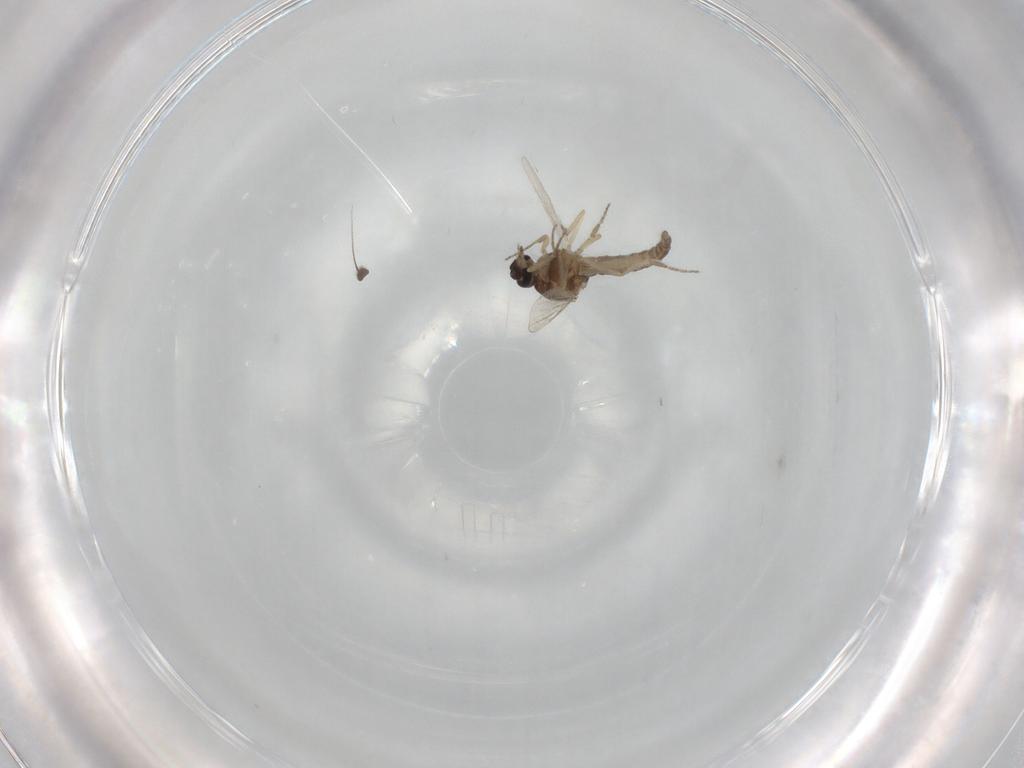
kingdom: Animalia
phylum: Arthropoda
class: Insecta
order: Diptera
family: Ceratopogonidae
